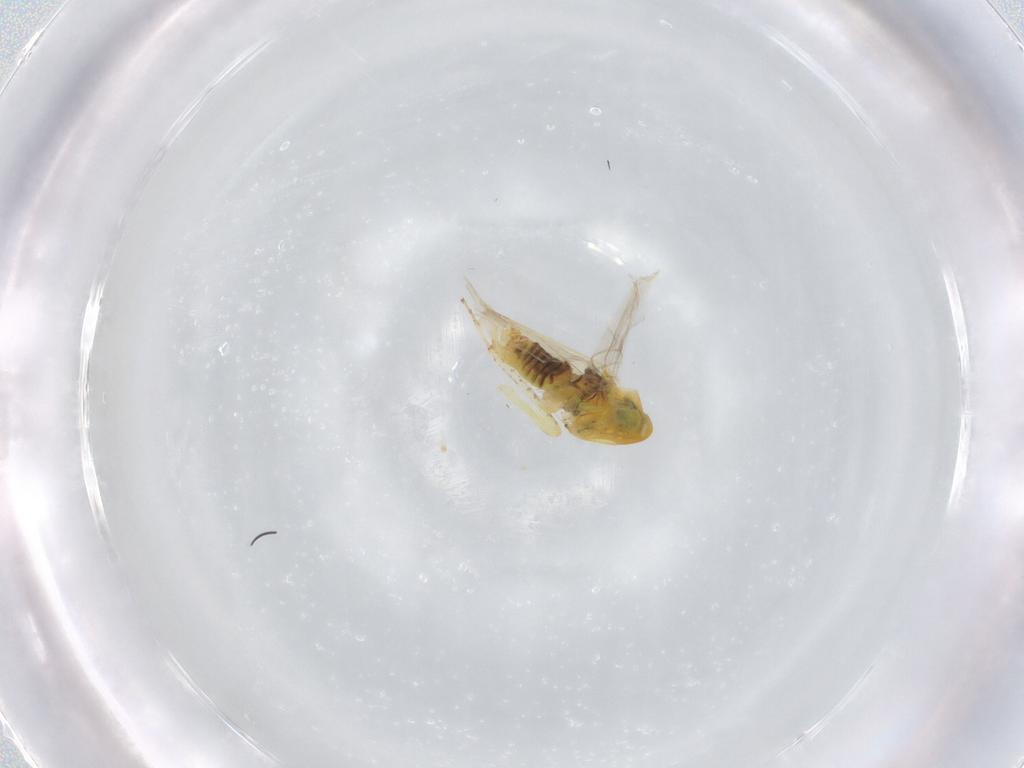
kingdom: Animalia
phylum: Arthropoda
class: Insecta
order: Hemiptera
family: Cicadellidae
